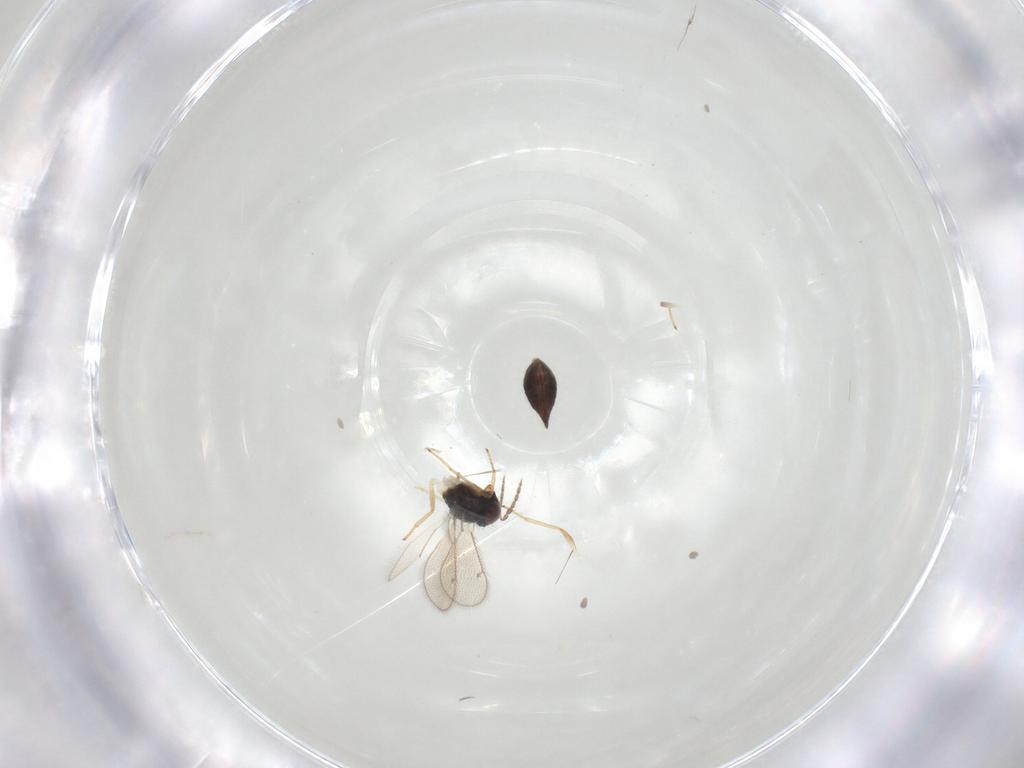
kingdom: Animalia
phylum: Arthropoda
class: Insecta
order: Hymenoptera
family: Eulophidae
